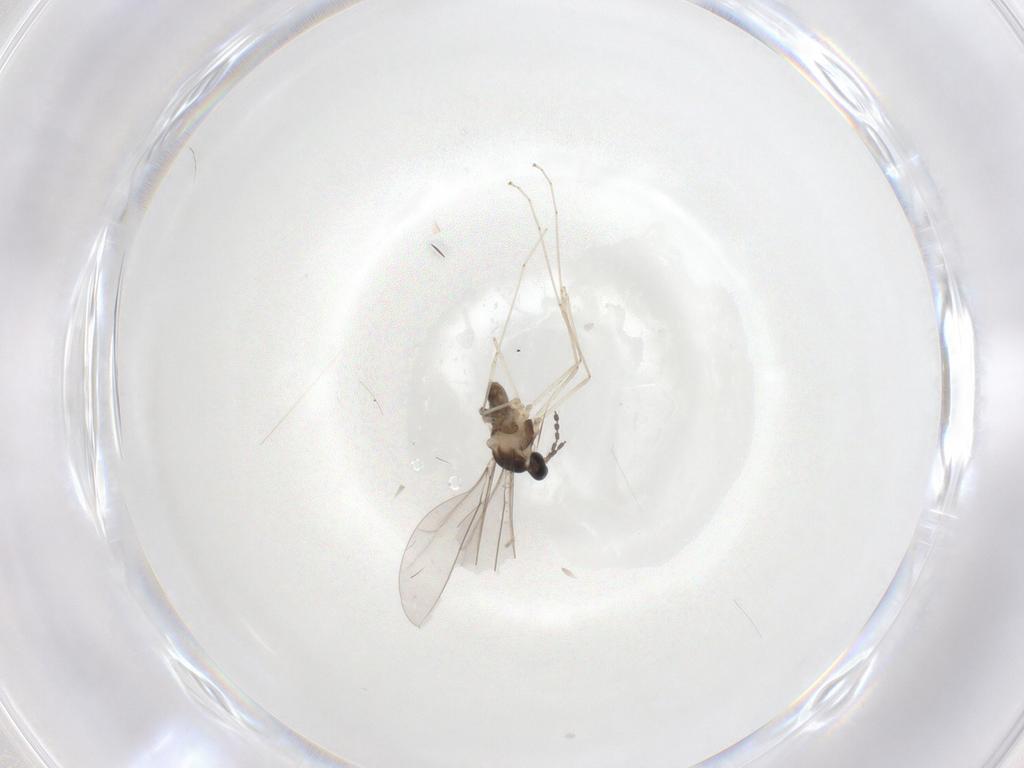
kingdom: Animalia
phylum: Arthropoda
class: Insecta
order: Diptera
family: Cecidomyiidae
